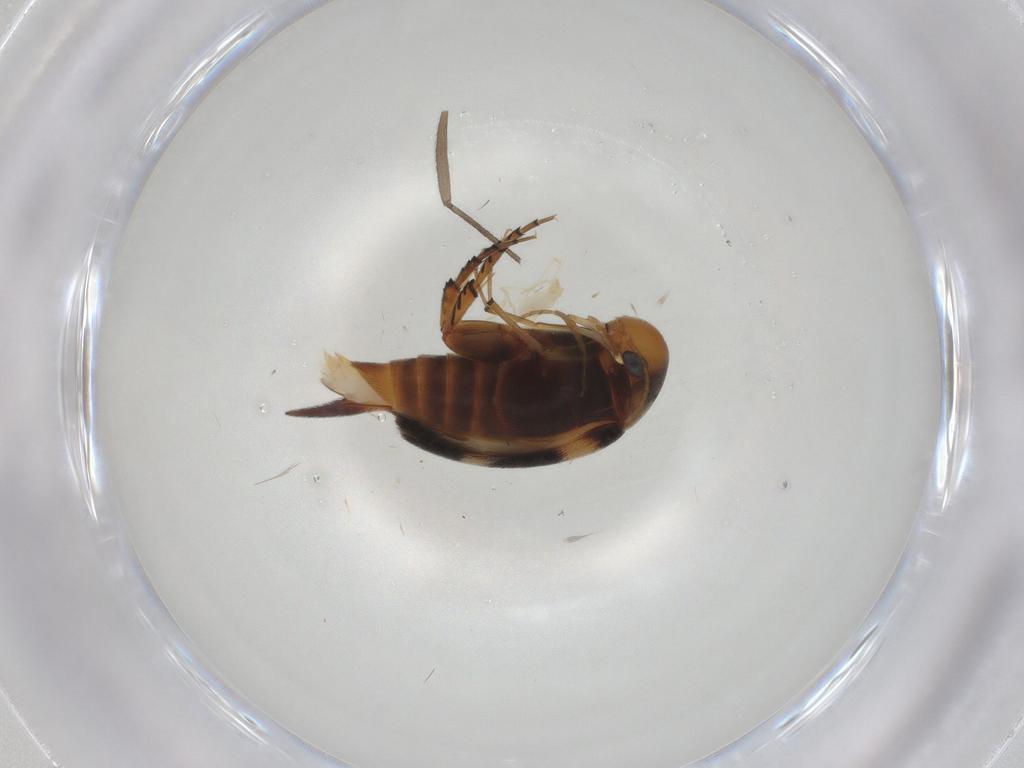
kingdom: Animalia
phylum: Arthropoda
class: Insecta
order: Coleoptera
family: Mordellidae
